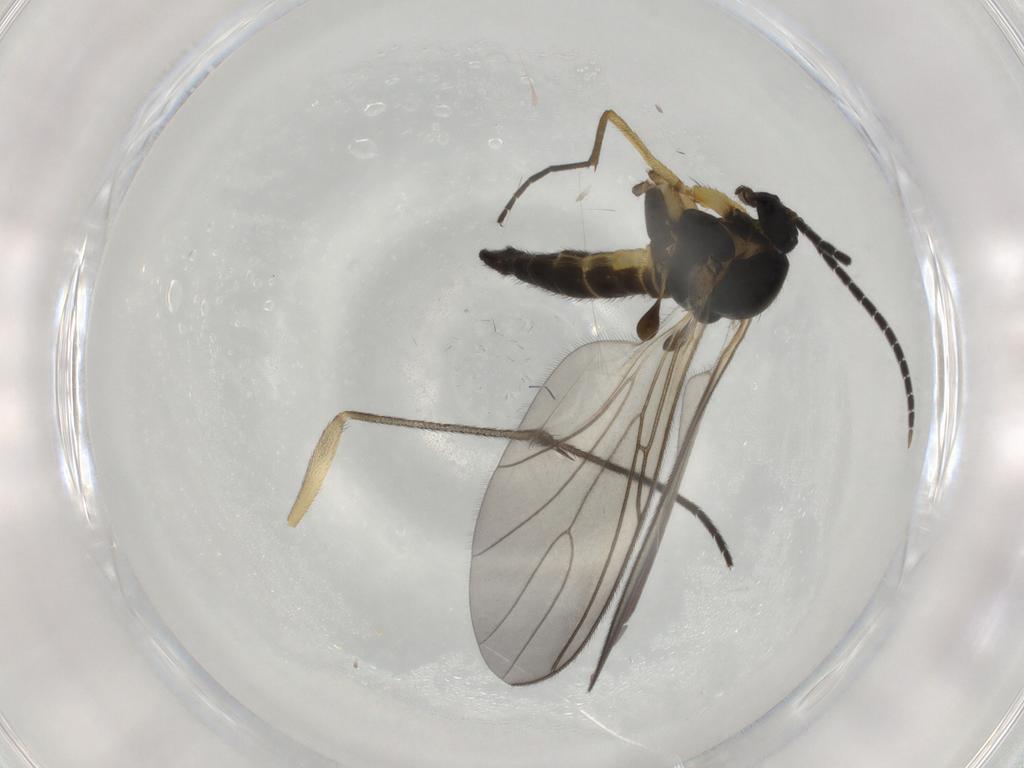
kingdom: Animalia
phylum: Arthropoda
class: Insecta
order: Diptera
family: Sciaridae
